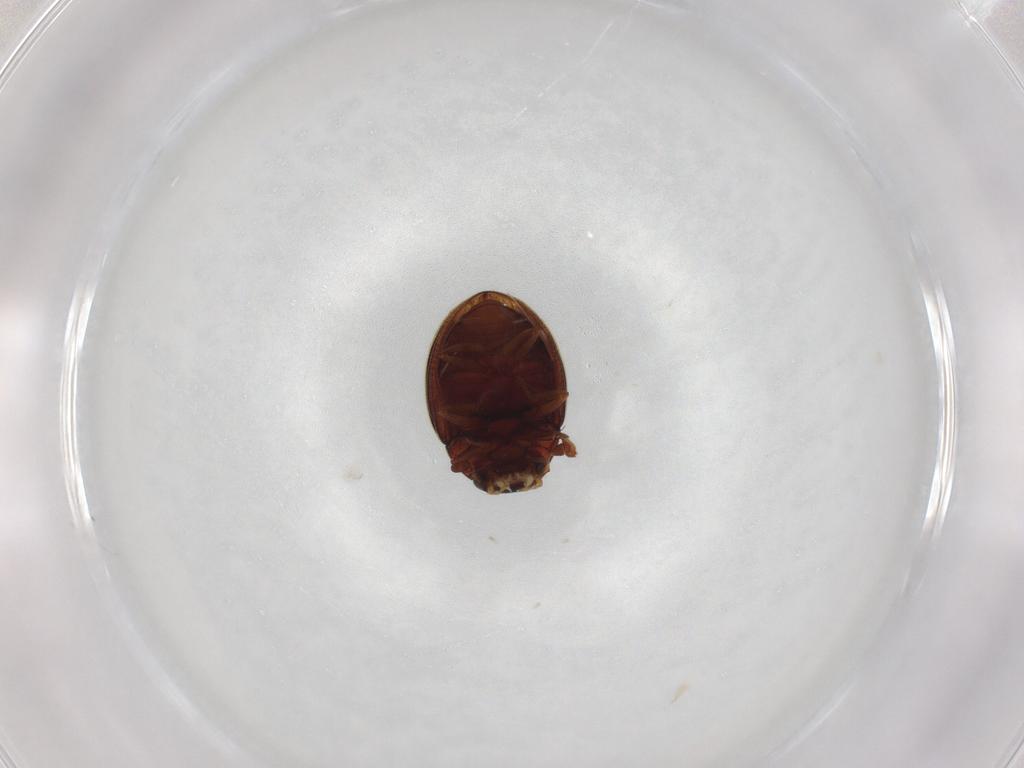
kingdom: Animalia
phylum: Arthropoda
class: Insecta
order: Coleoptera
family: Hydrophilidae
